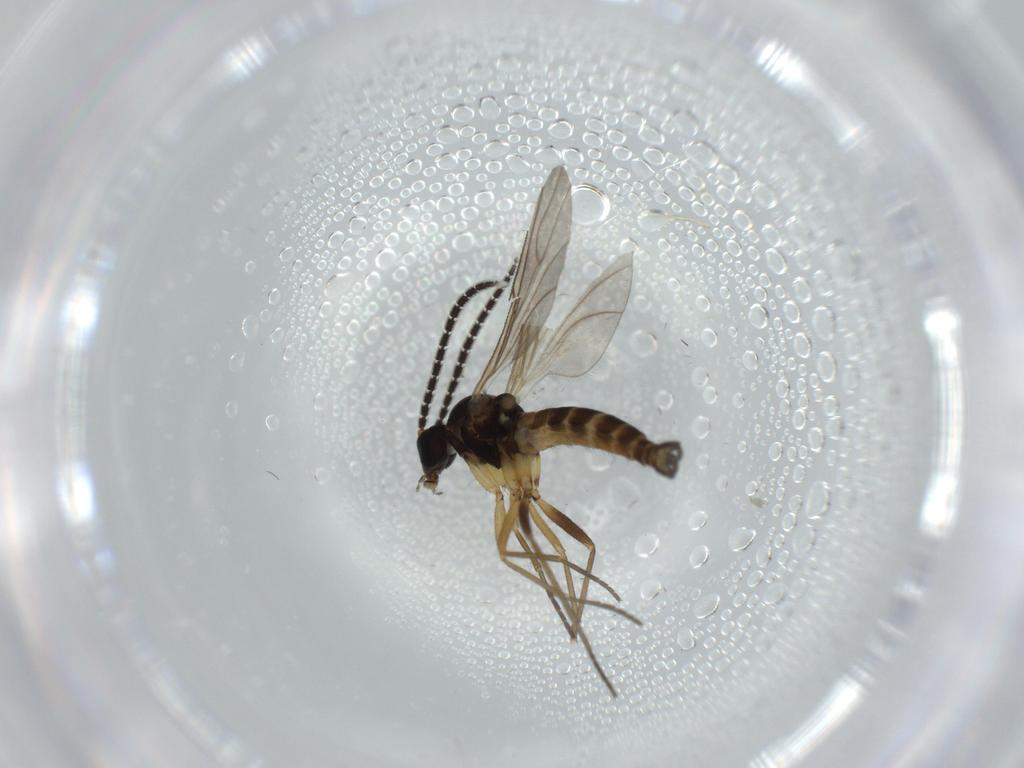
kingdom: Animalia
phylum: Arthropoda
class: Insecta
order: Diptera
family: Sciaridae
